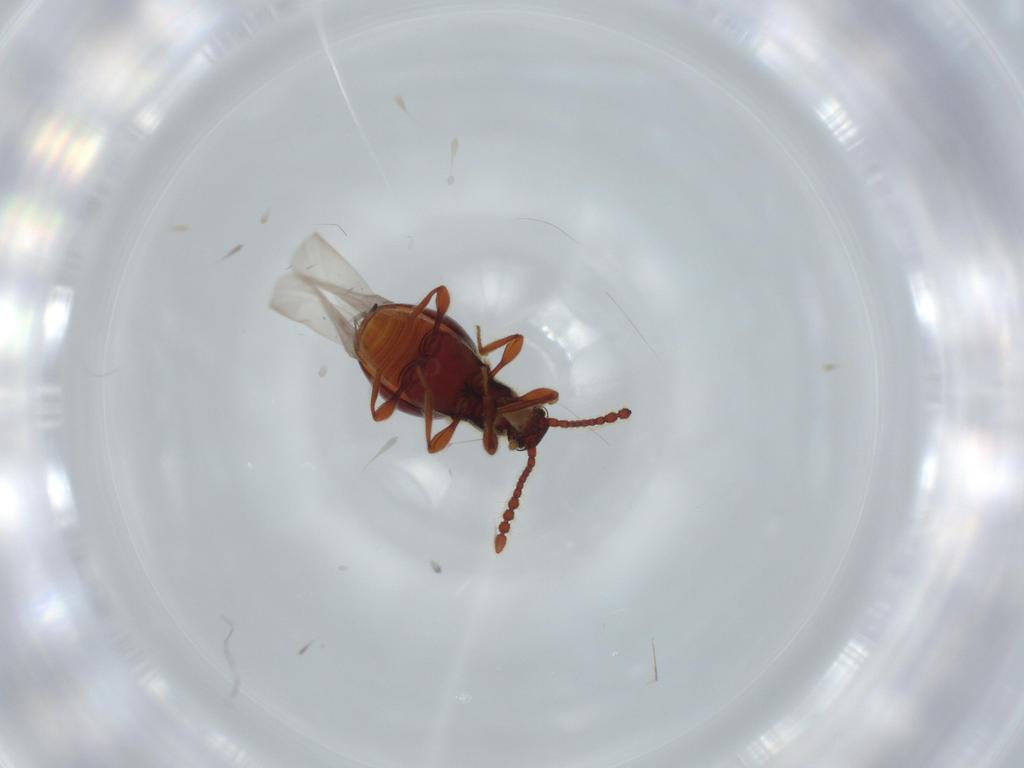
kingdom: Animalia
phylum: Arthropoda
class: Insecta
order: Coleoptera
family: Staphylinidae
